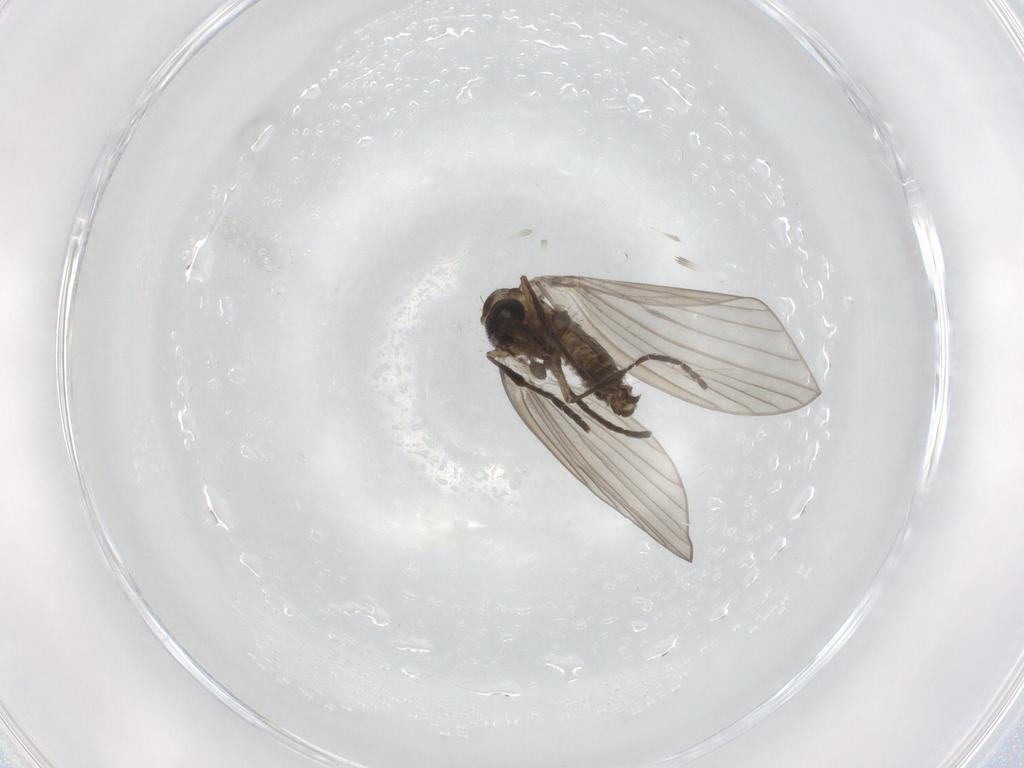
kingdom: Animalia
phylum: Arthropoda
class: Insecta
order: Diptera
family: Psychodidae
